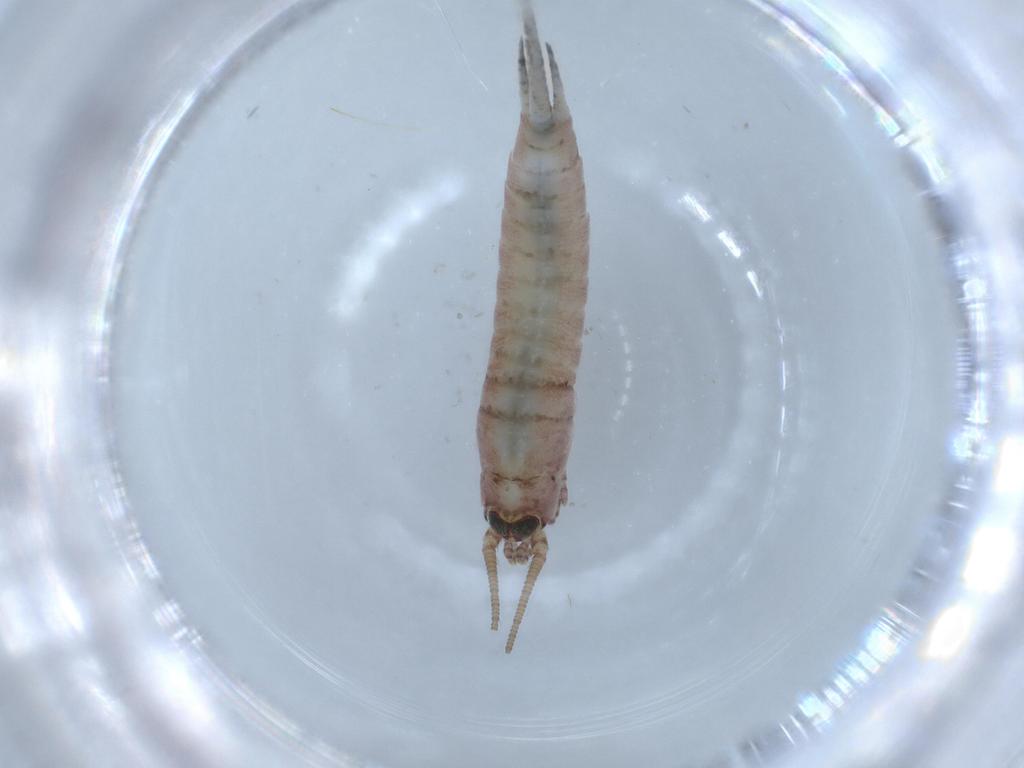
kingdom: Animalia
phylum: Arthropoda
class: Insecta
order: Archaeognatha
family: Machilidae
